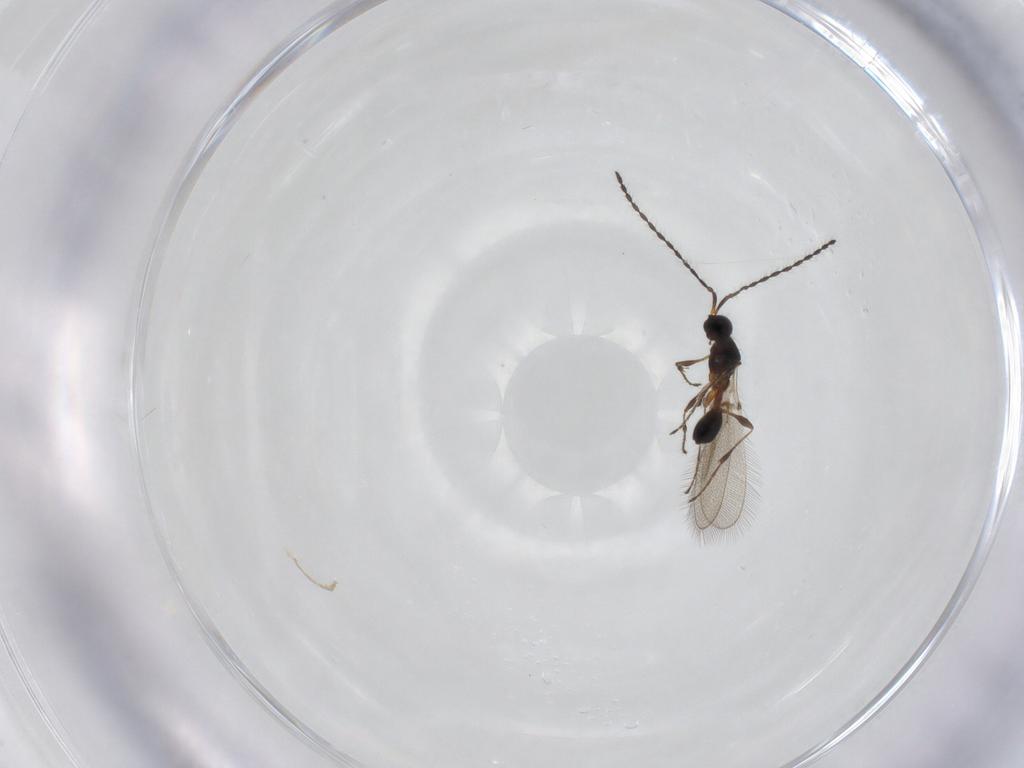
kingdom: Animalia
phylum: Arthropoda
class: Insecta
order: Hymenoptera
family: Diapriidae
